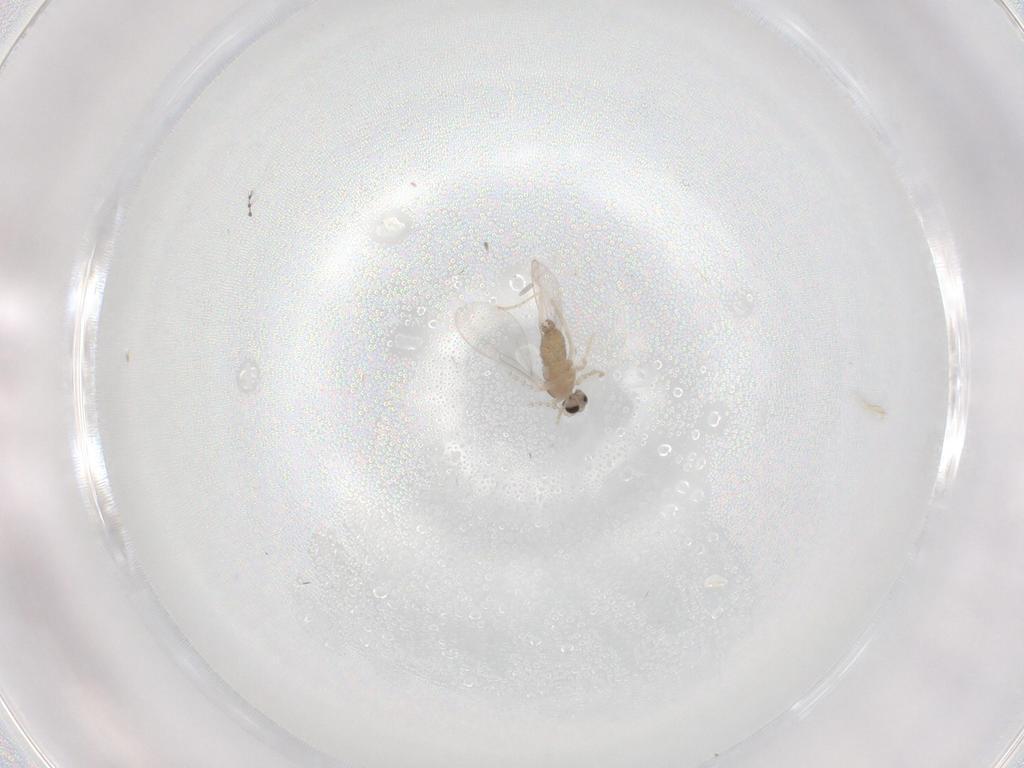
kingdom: Animalia
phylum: Arthropoda
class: Insecta
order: Diptera
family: Cecidomyiidae
